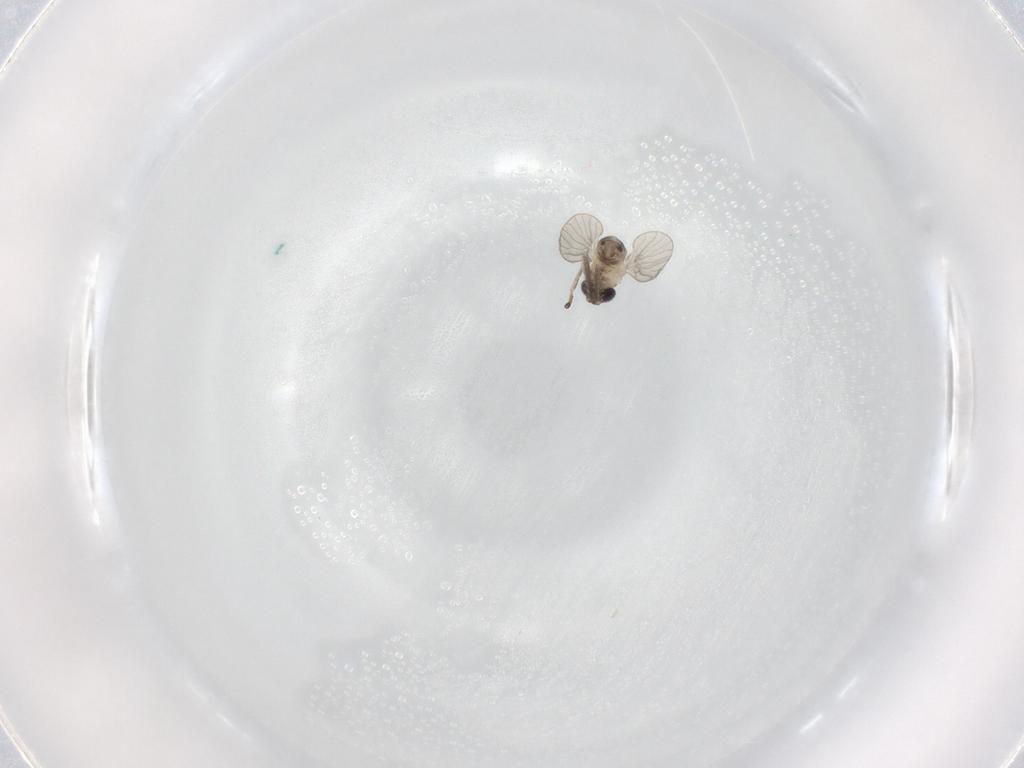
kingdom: Animalia
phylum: Arthropoda
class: Insecta
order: Diptera
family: Psychodidae
